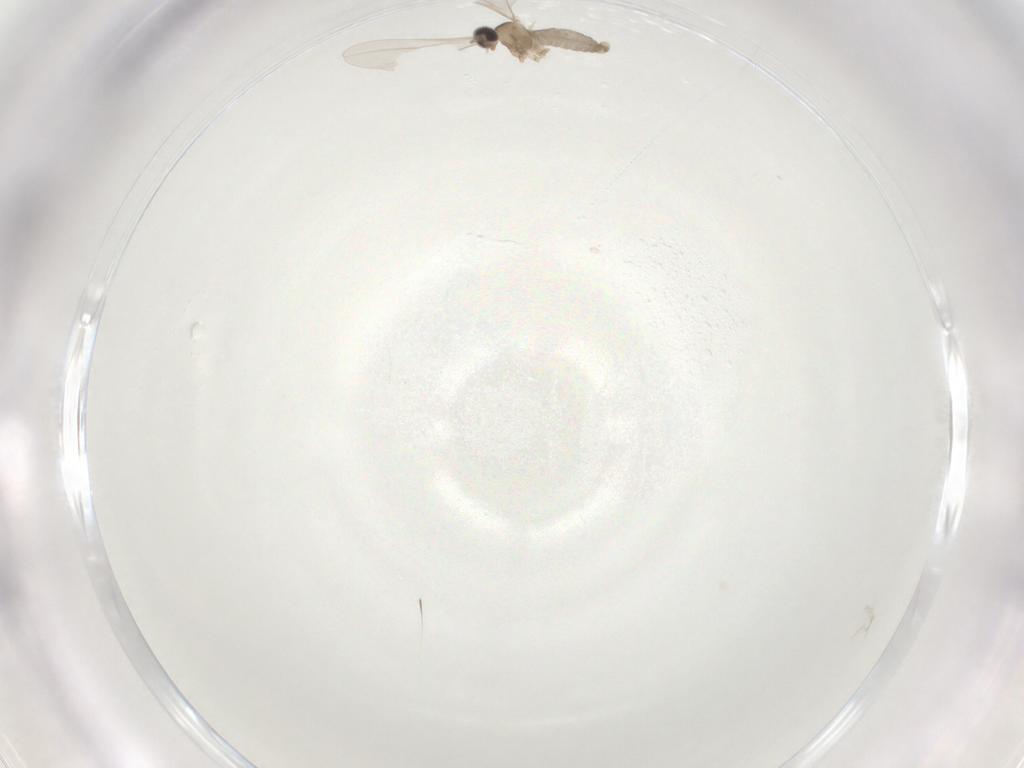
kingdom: Animalia
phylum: Arthropoda
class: Insecta
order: Diptera
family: Cecidomyiidae
